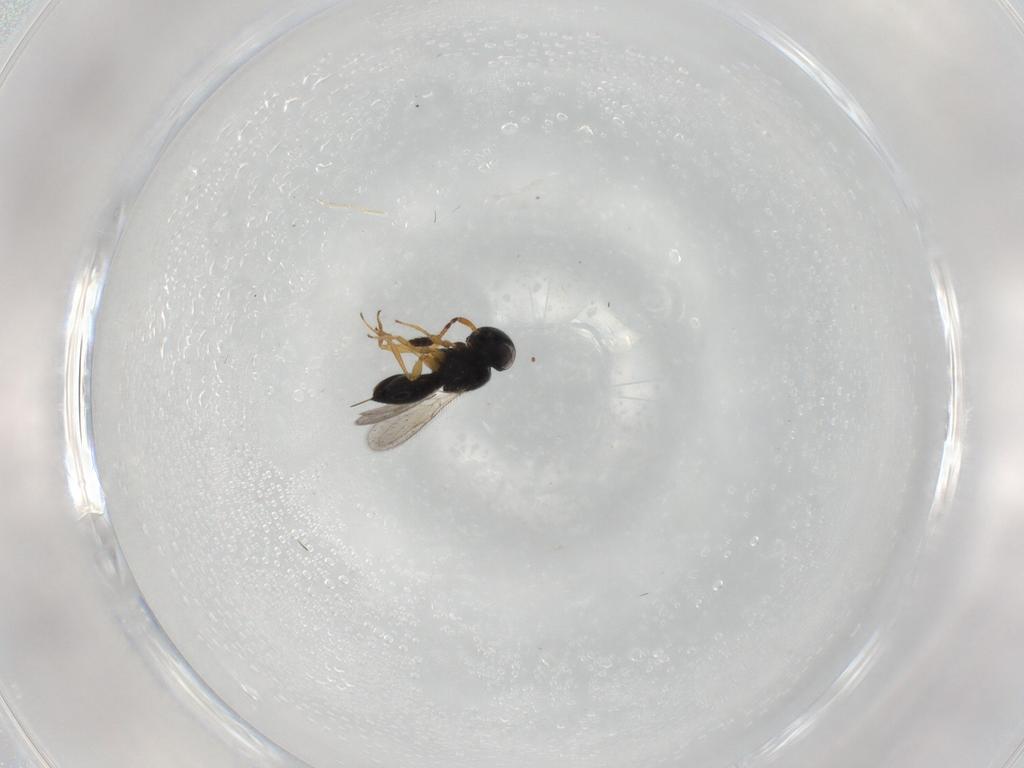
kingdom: Animalia
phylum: Arthropoda
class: Insecta
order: Hymenoptera
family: Scelionidae
